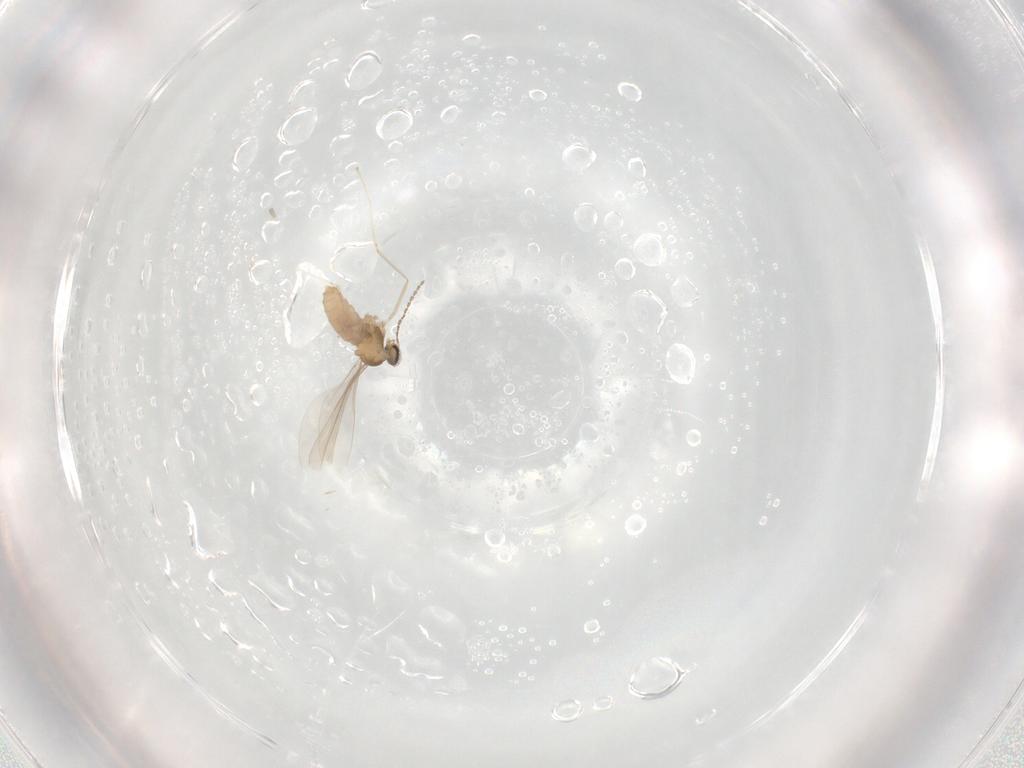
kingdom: Animalia
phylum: Arthropoda
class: Insecta
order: Diptera
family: Cecidomyiidae
